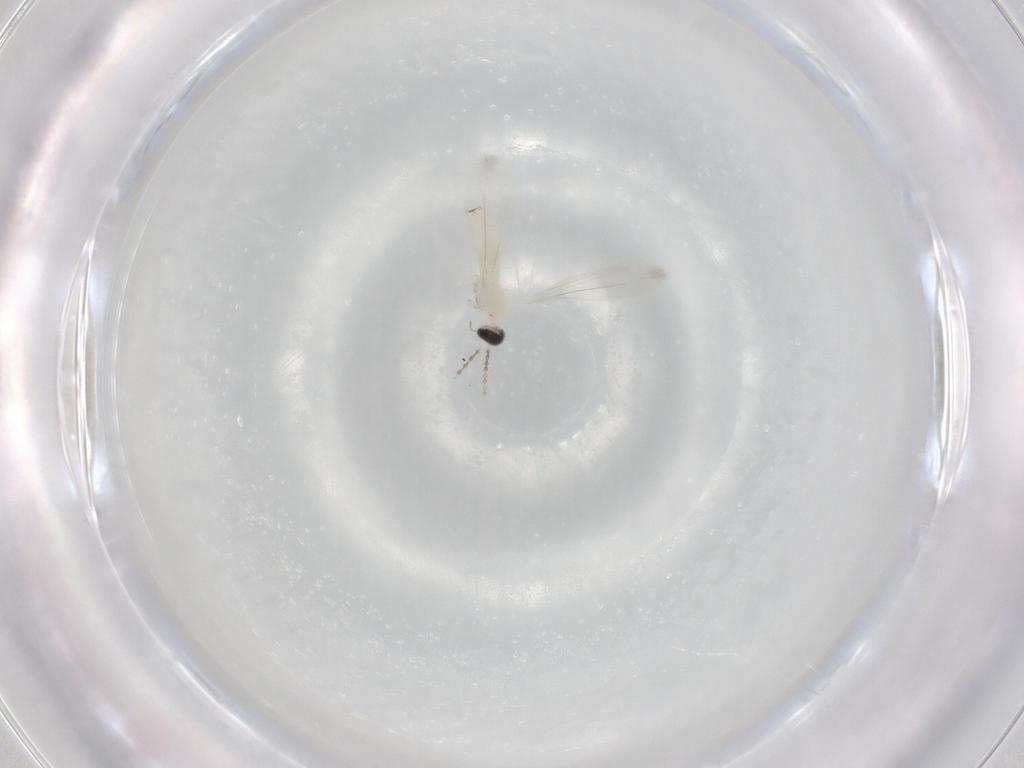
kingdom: Animalia
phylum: Arthropoda
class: Insecta
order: Diptera
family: Cecidomyiidae
